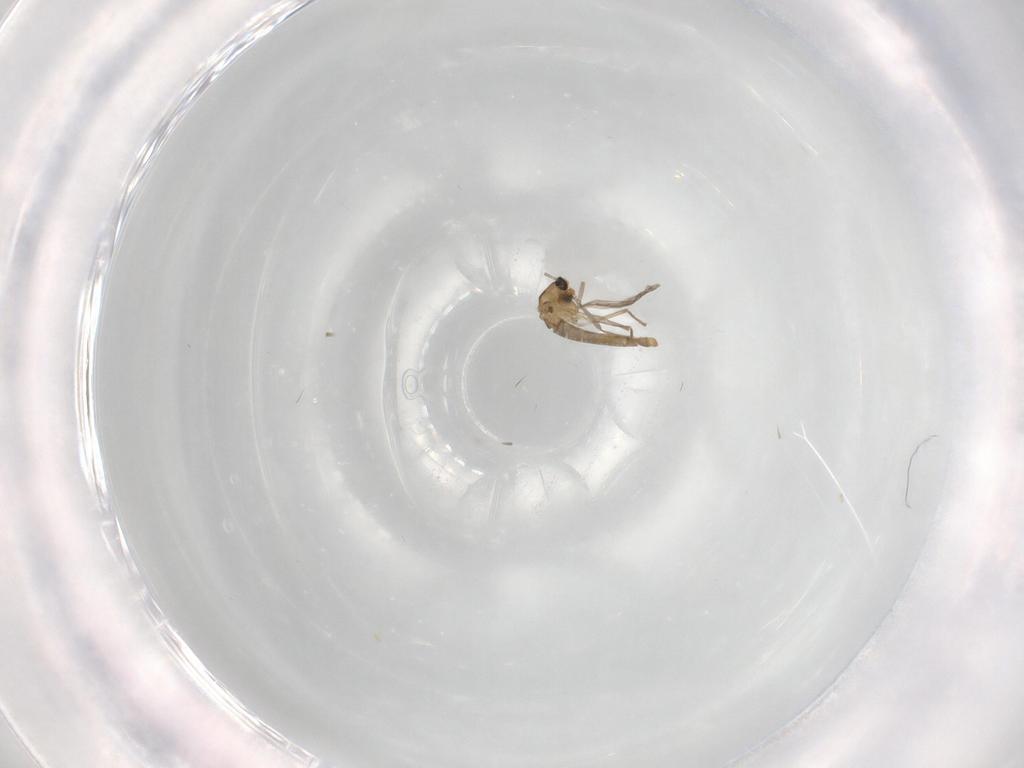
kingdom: Animalia
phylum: Arthropoda
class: Insecta
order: Diptera
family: Chironomidae
